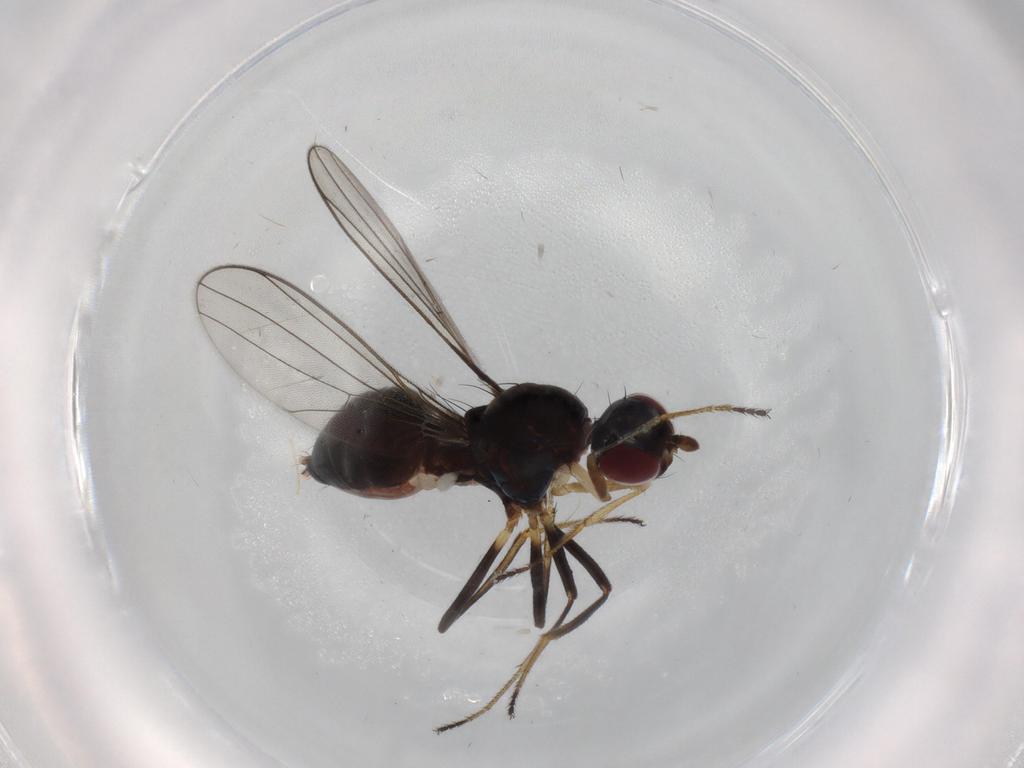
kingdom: Animalia
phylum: Arthropoda
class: Insecta
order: Diptera
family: Sepsidae
